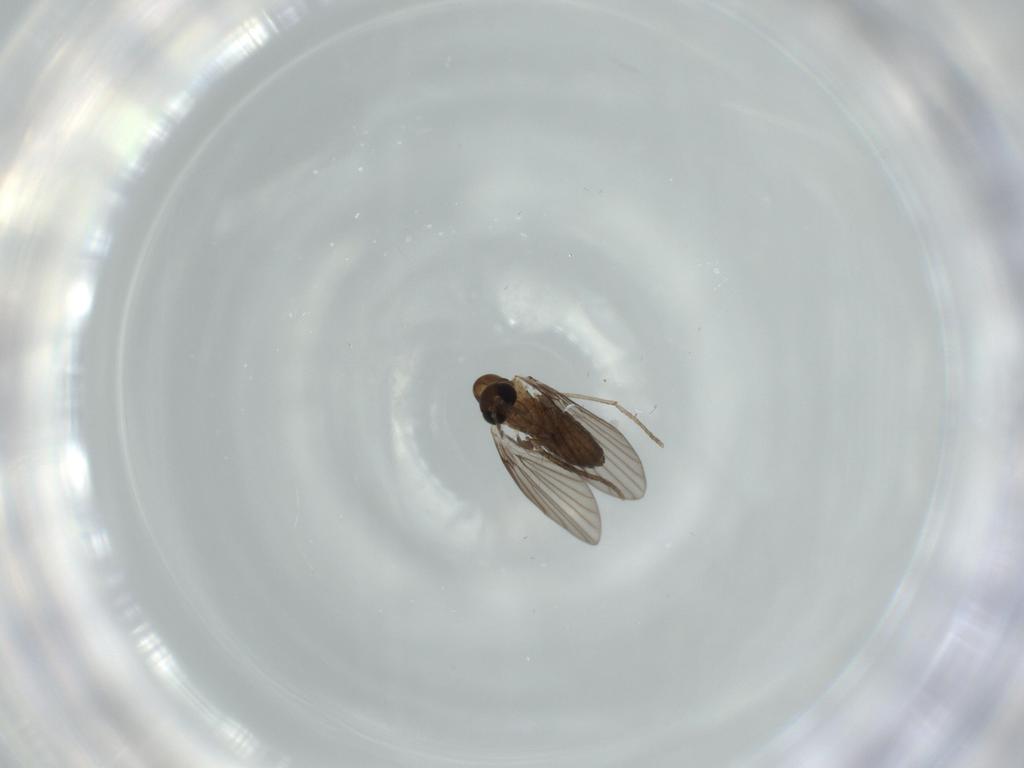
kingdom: Animalia
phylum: Arthropoda
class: Insecta
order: Diptera
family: Psychodidae
